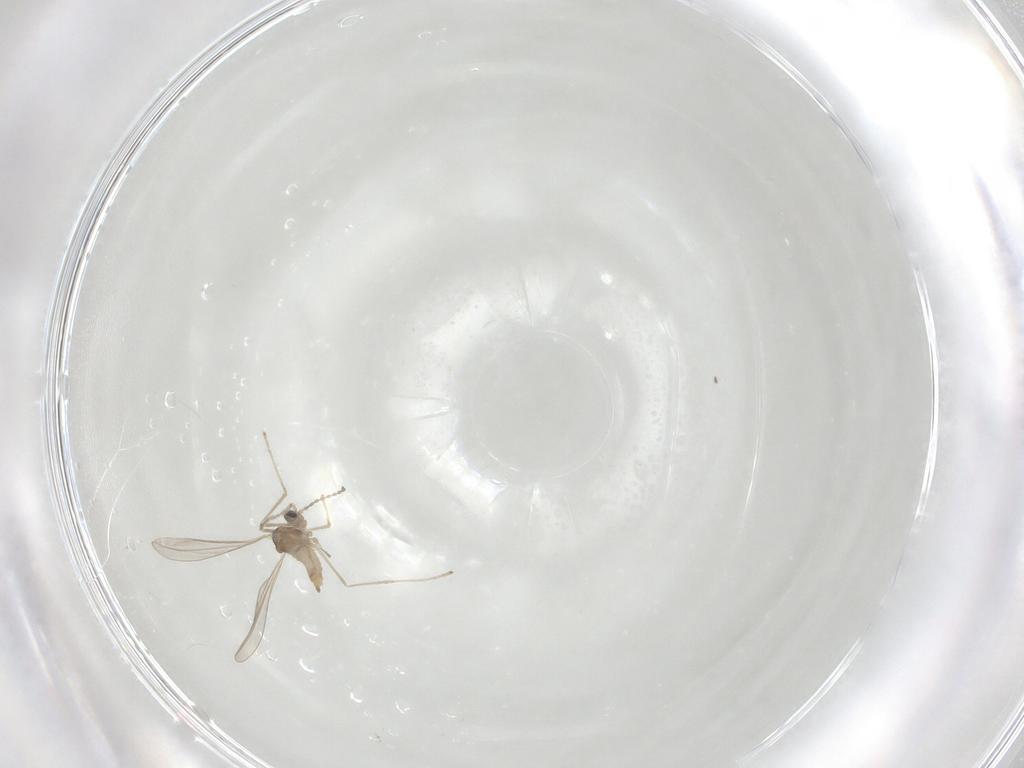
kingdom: Animalia
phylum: Arthropoda
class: Insecta
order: Diptera
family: Cecidomyiidae
